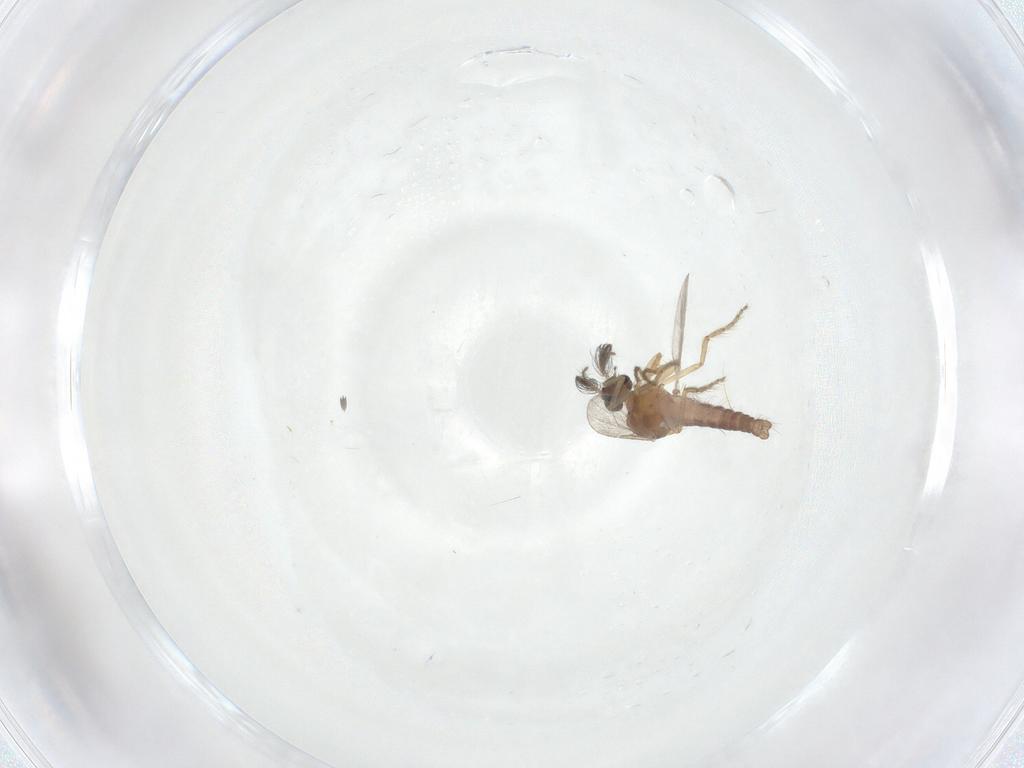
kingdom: Animalia
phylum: Arthropoda
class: Insecta
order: Diptera
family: Ceratopogonidae
